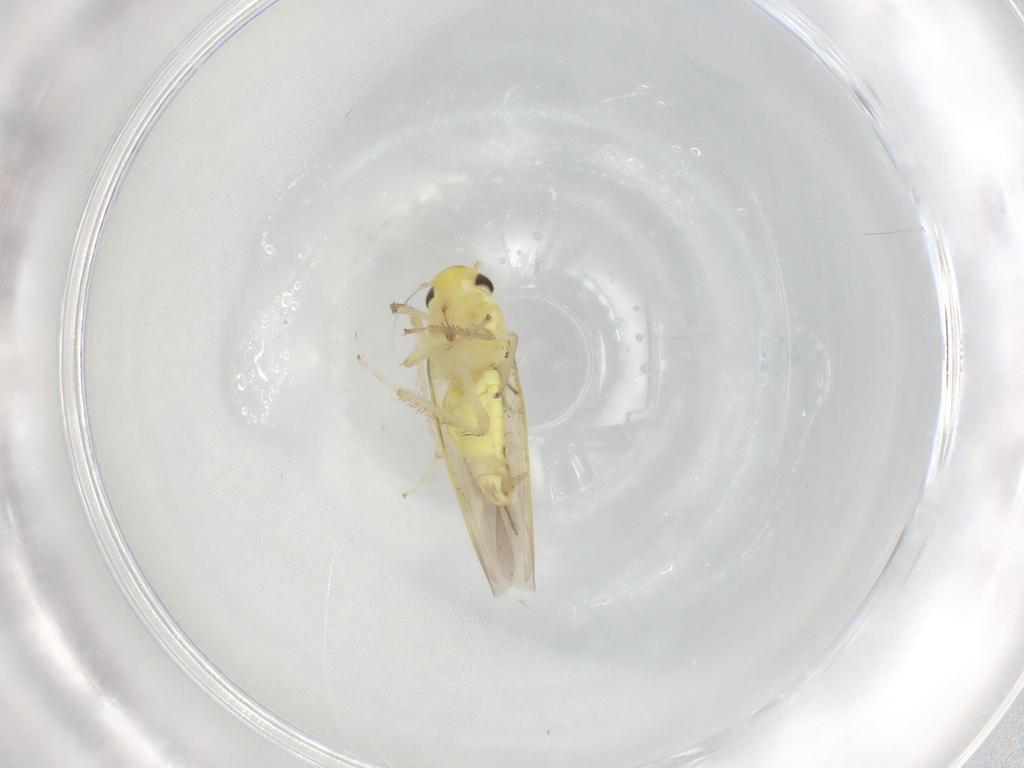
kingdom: Animalia
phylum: Arthropoda
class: Insecta
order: Hemiptera
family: Cicadellidae
